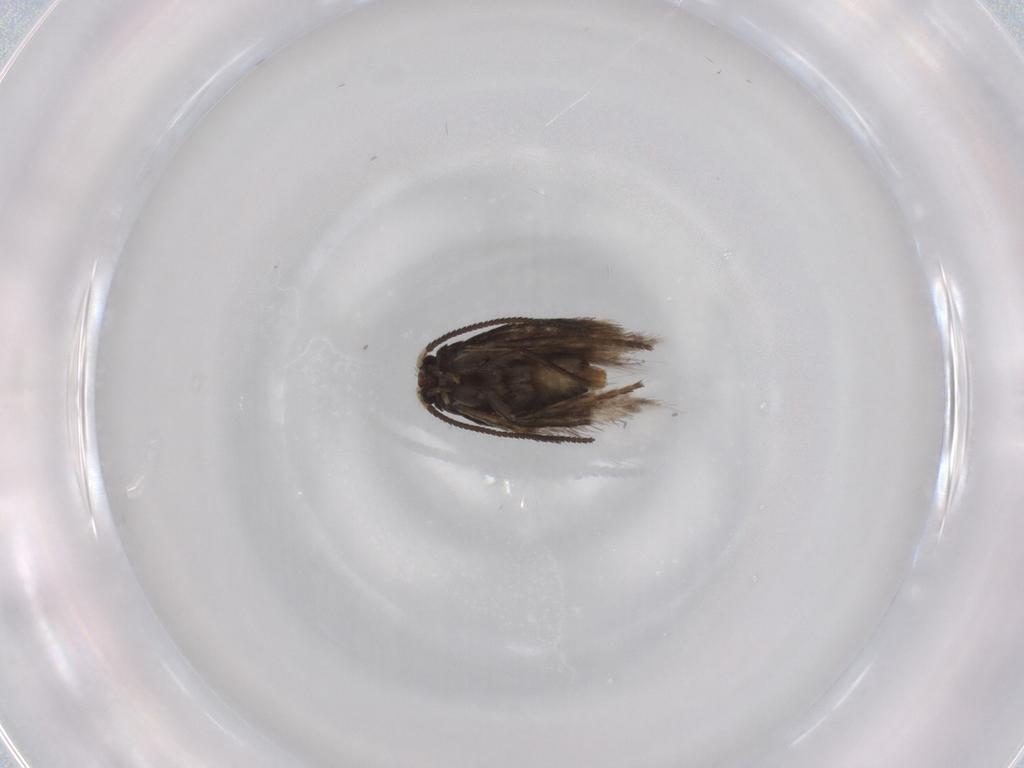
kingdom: Animalia
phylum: Arthropoda
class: Insecta
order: Lepidoptera
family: Nepticulidae
